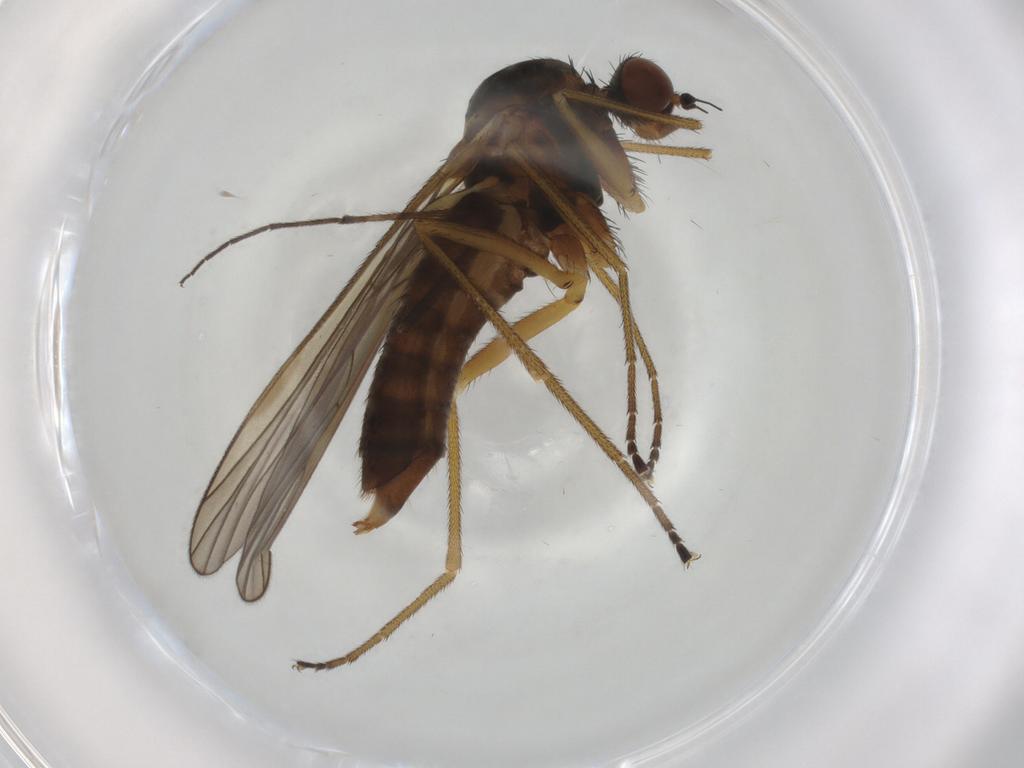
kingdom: Animalia
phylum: Arthropoda
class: Insecta
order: Diptera
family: Brachystomatidae
